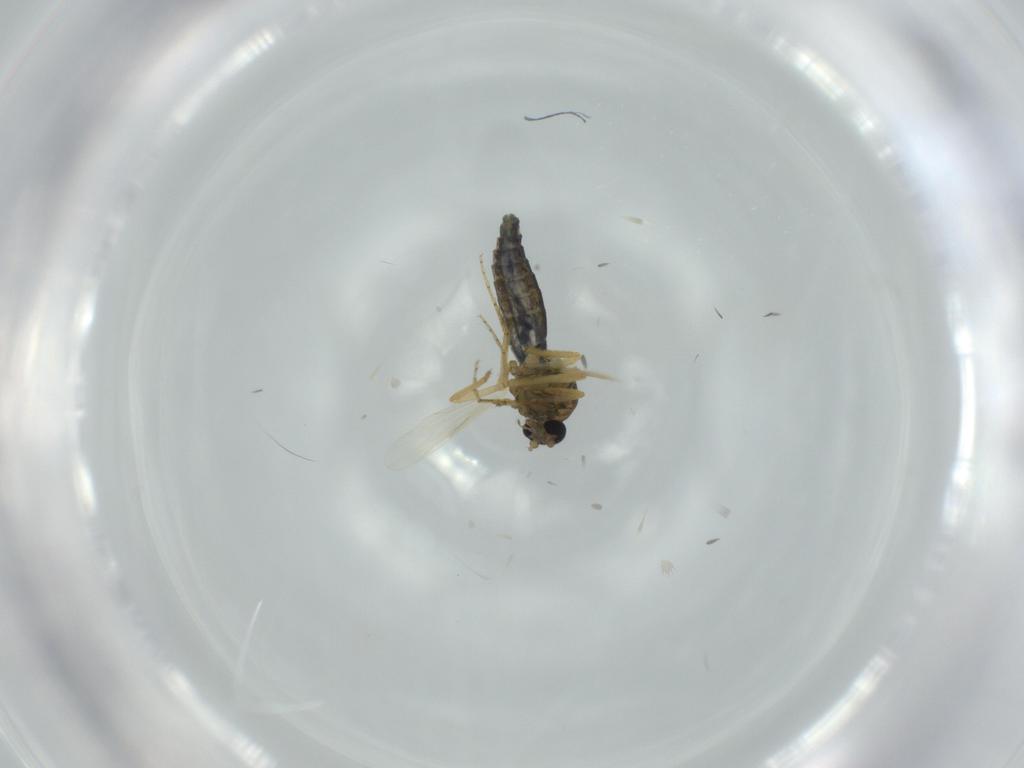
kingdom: Animalia
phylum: Arthropoda
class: Insecta
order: Diptera
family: Ceratopogonidae
